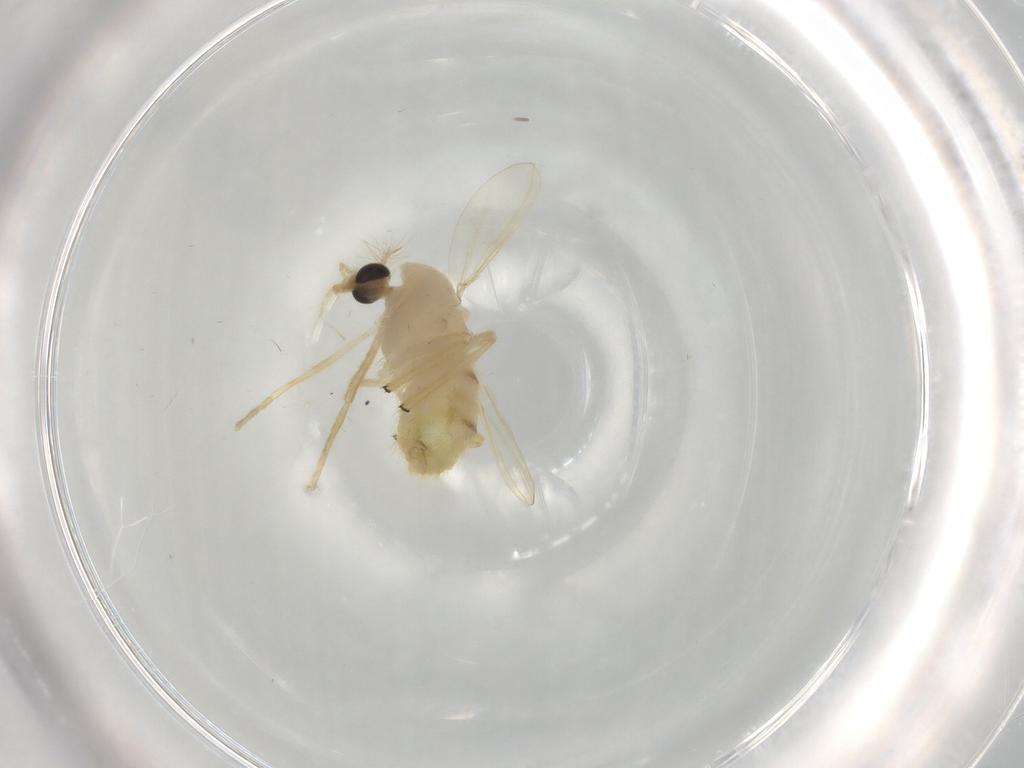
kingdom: Animalia
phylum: Arthropoda
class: Insecta
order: Diptera
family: Chironomidae
